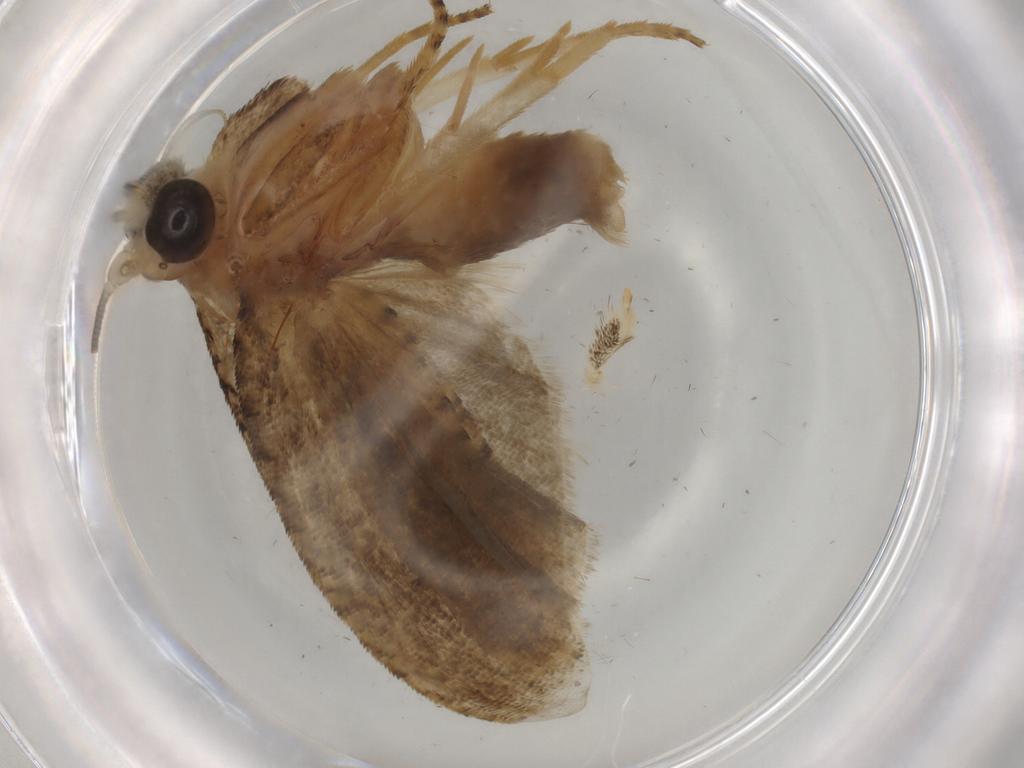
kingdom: Animalia
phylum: Arthropoda
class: Insecta
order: Lepidoptera
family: Tortricidae
